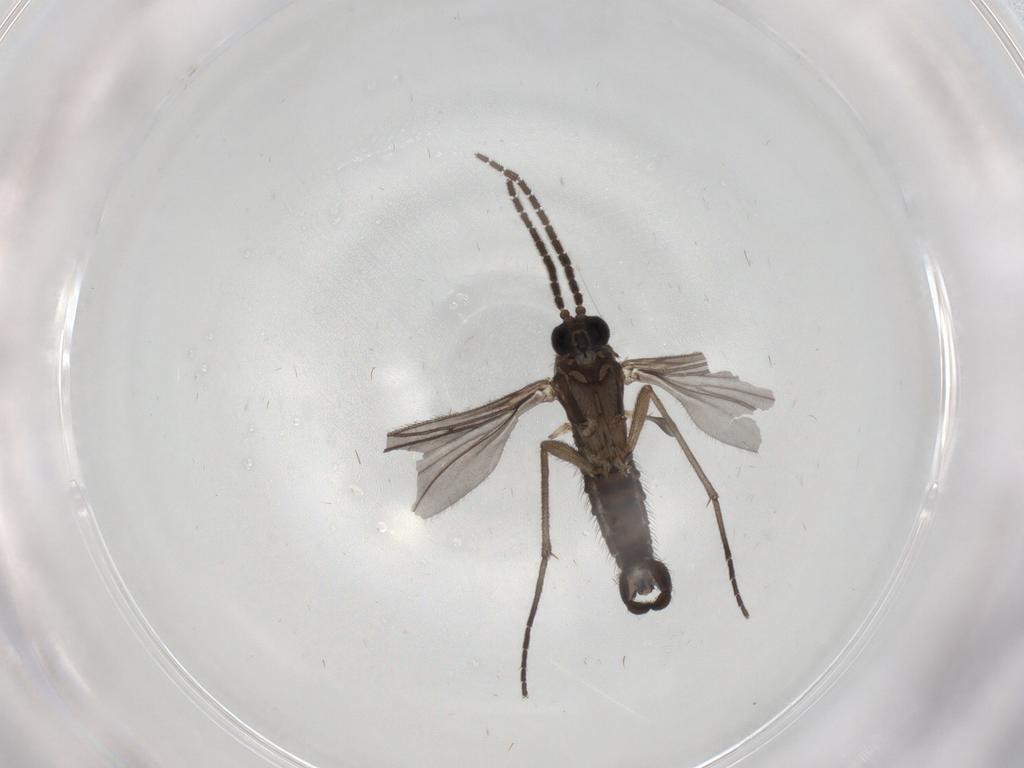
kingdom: Animalia
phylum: Arthropoda
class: Insecta
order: Diptera
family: Sciaridae
